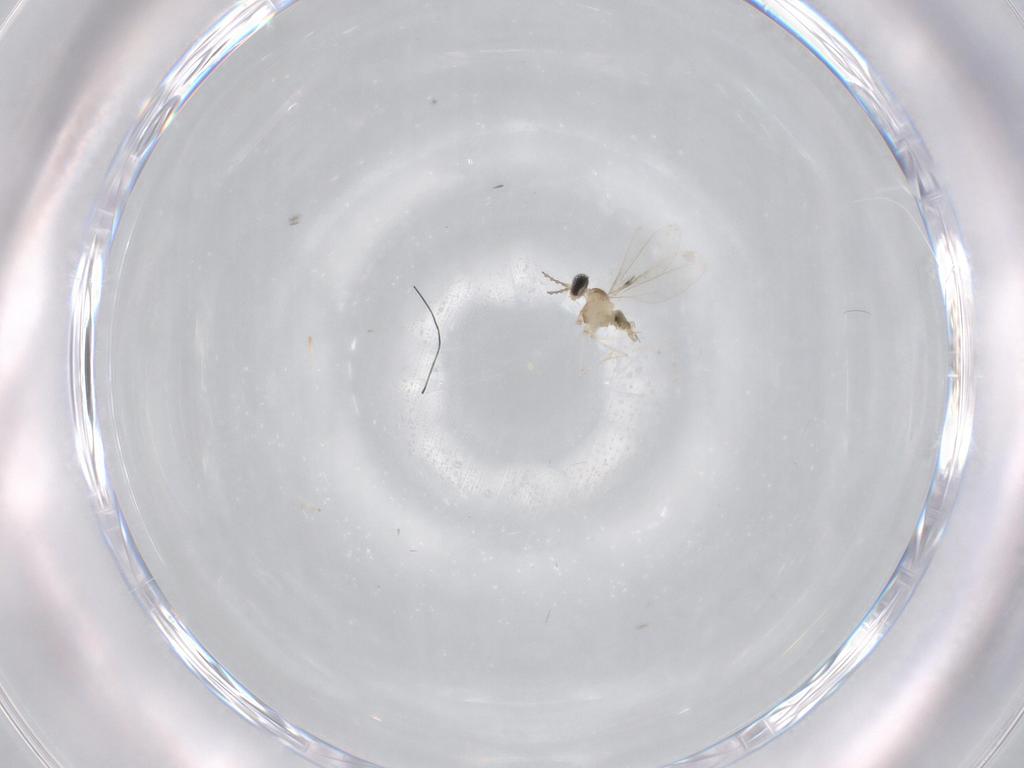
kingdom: Animalia
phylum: Arthropoda
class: Insecta
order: Diptera
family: Cecidomyiidae
